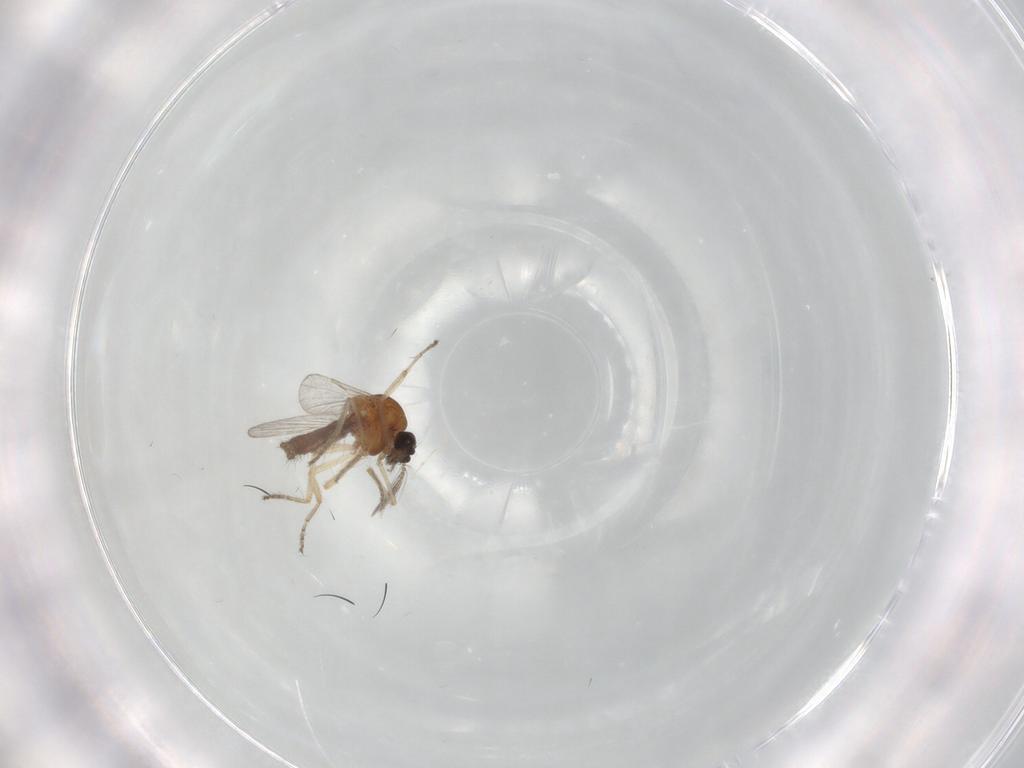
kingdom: Animalia
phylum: Arthropoda
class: Insecta
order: Diptera
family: Ceratopogonidae
